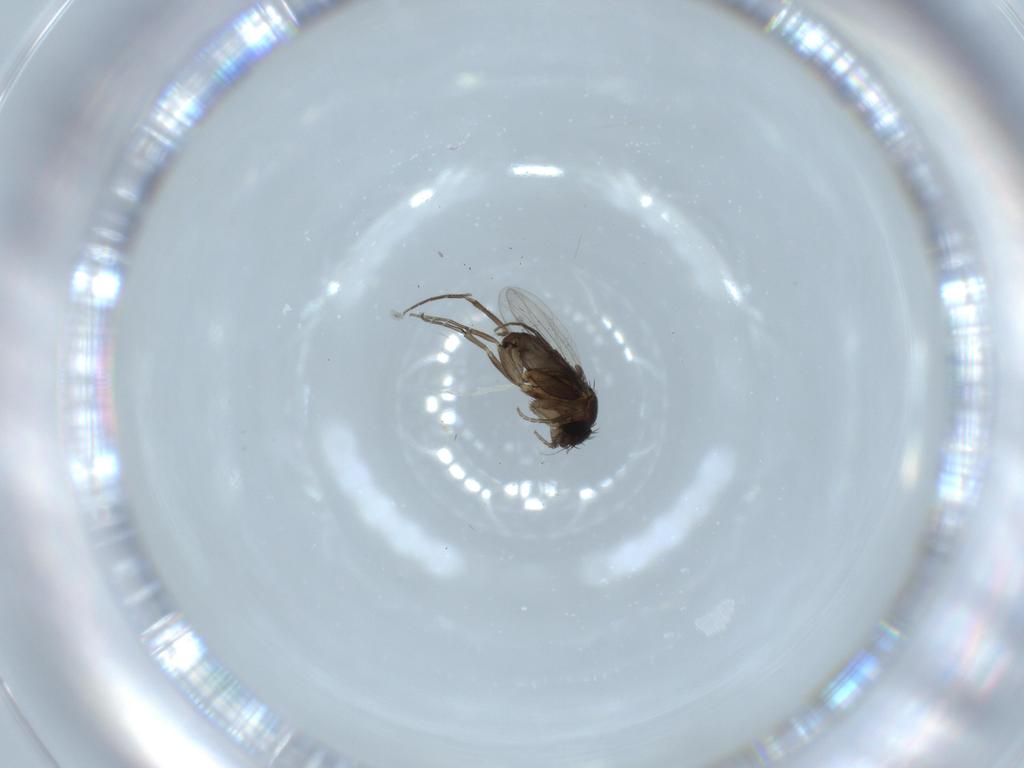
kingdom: Animalia
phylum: Arthropoda
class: Insecta
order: Diptera
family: Phoridae
